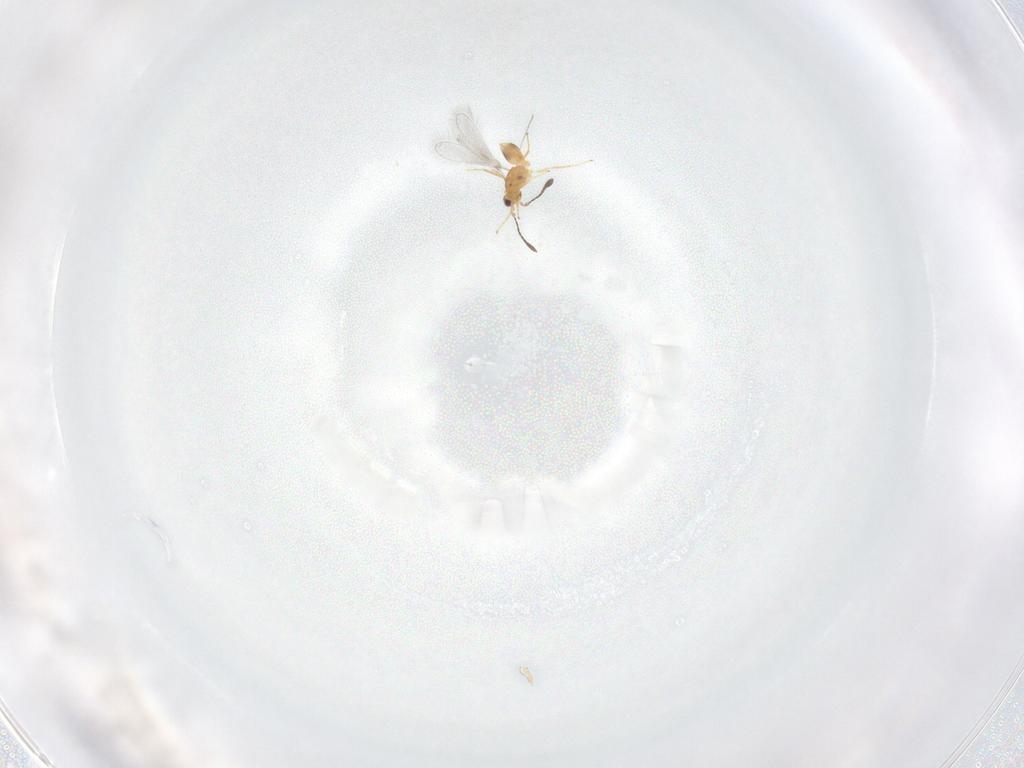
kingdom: Animalia
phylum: Arthropoda
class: Insecta
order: Hymenoptera
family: Mymaridae
